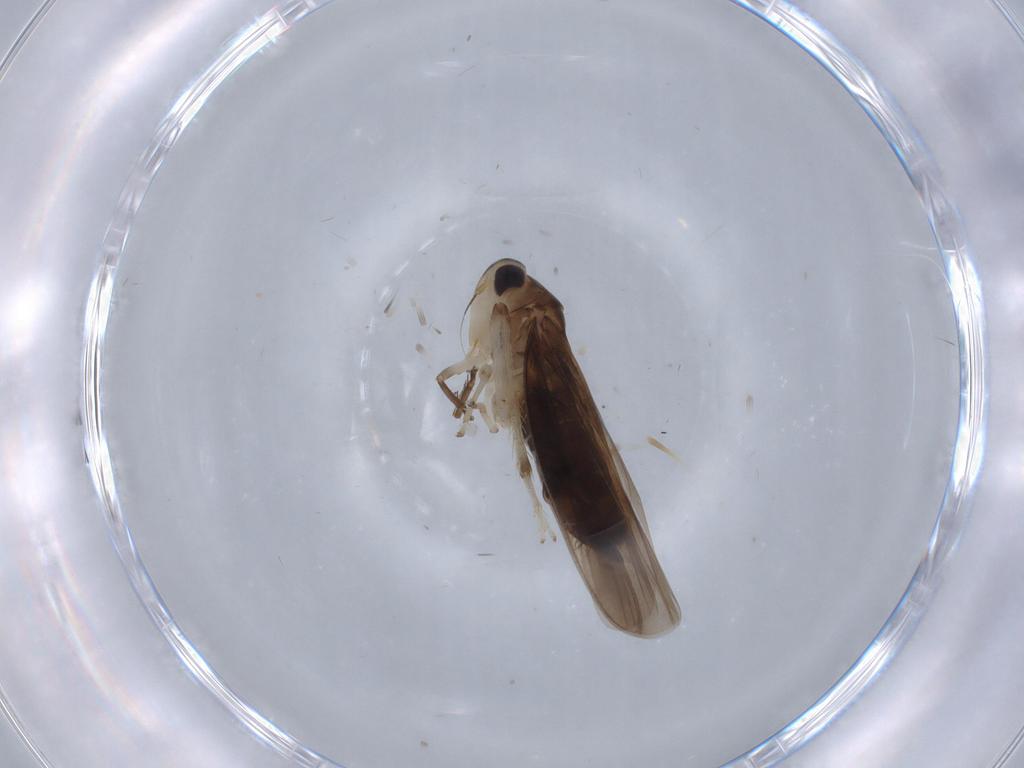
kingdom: Animalia
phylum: Arthropoda
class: Insecta
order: Hemiptera
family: Cicadellidae
